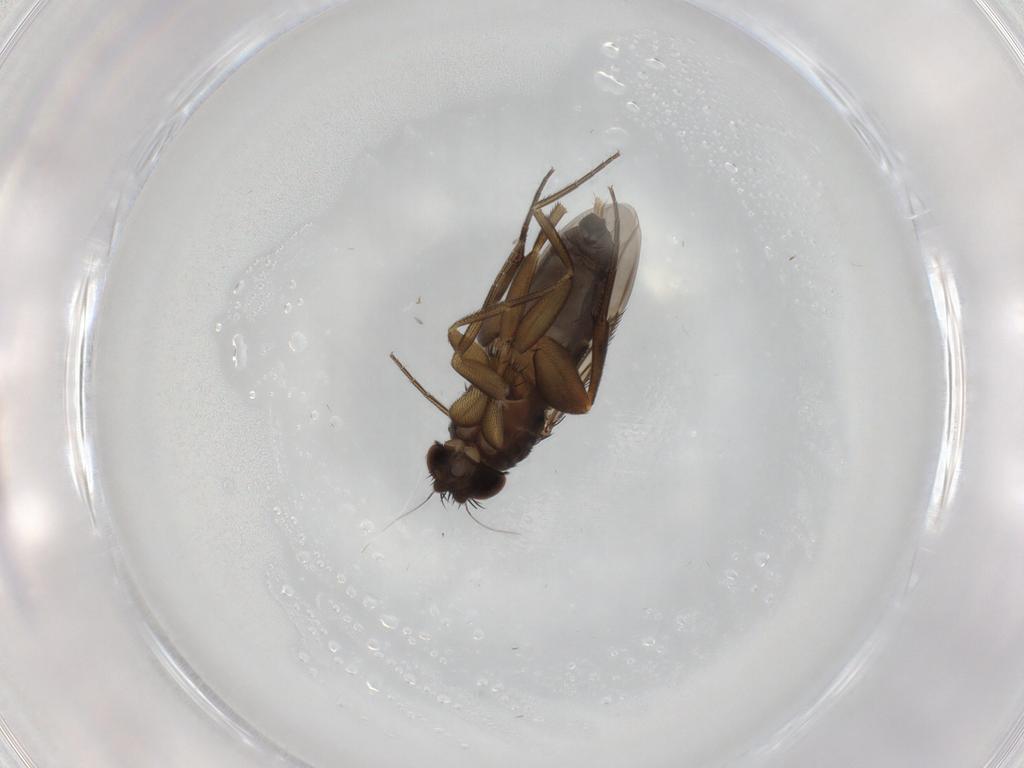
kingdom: Animalia
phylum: Arthropoda
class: Insecta
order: Diptera
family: Phoridae
